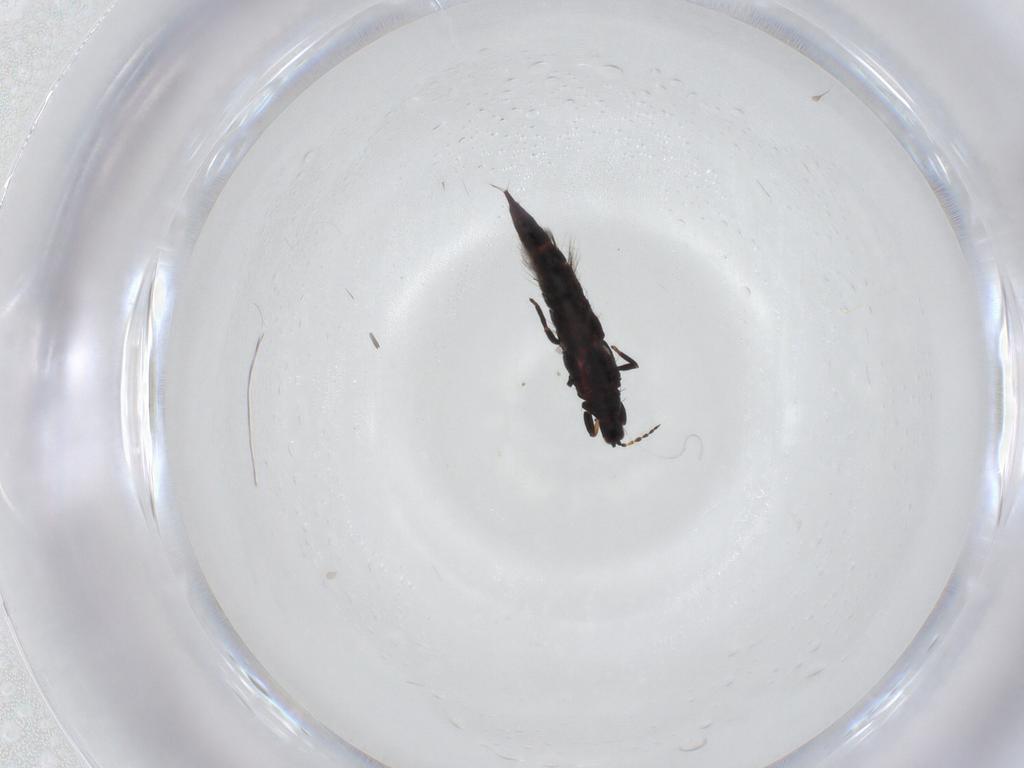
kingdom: Animalia
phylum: Arthropoda
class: Insecta
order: Thysanoptera
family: Phlaeothripidae
